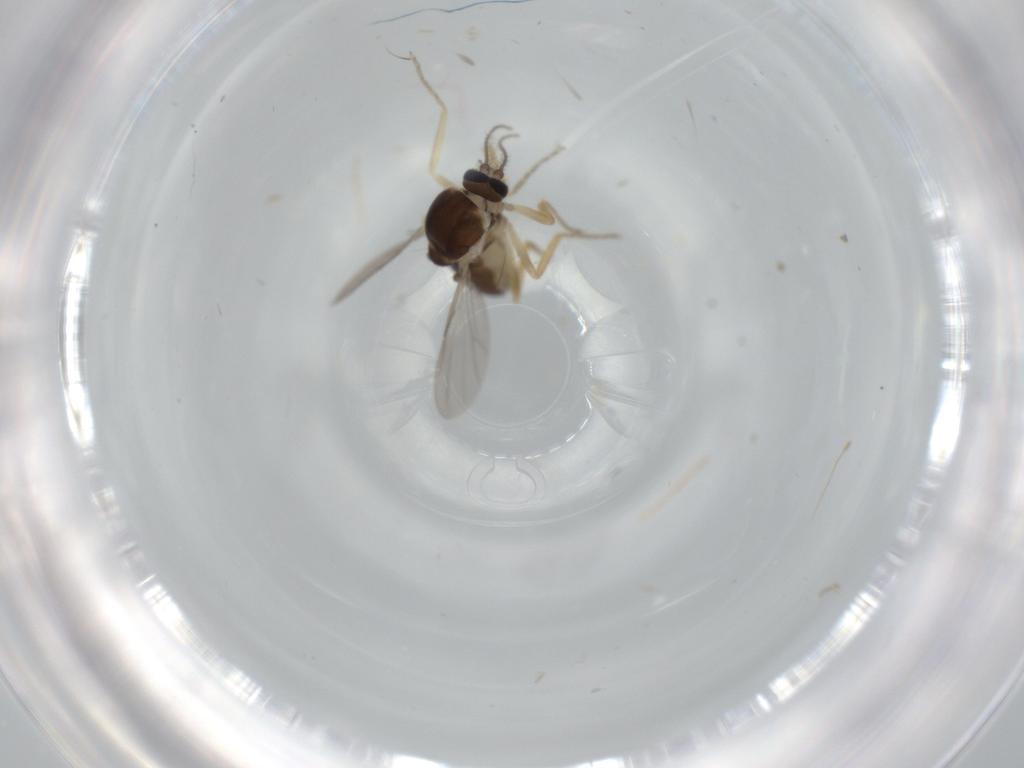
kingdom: Animalia
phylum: Arthropoda
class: Insecta
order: Diptera
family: Ceratopogonidae
